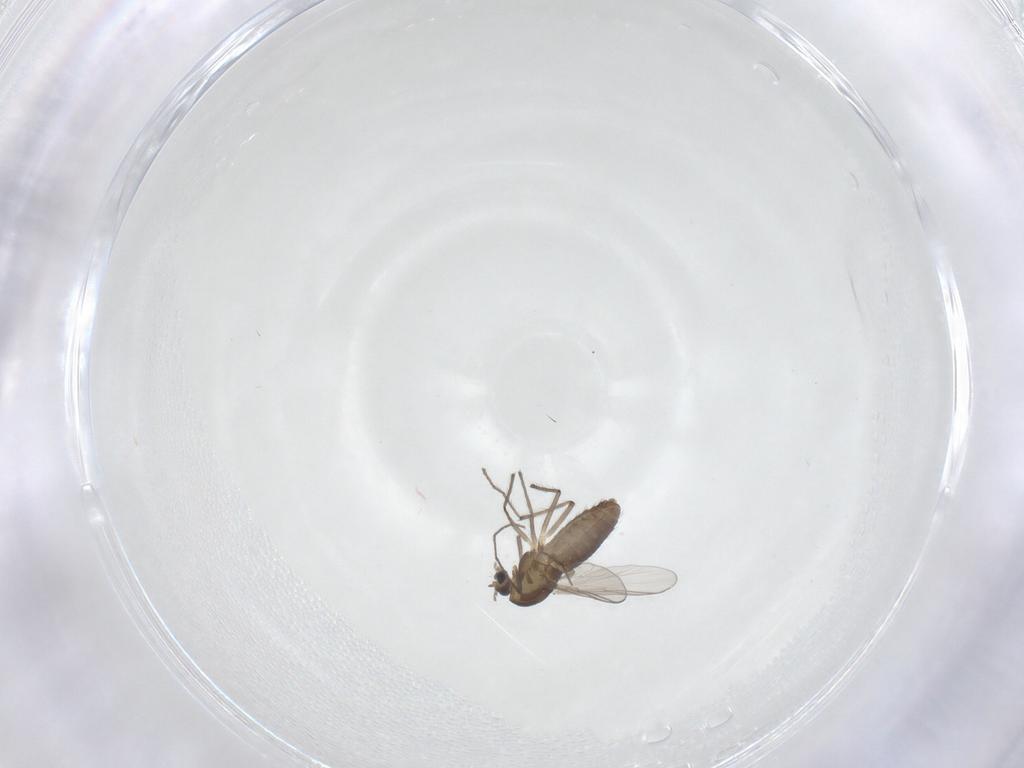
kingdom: Animalia
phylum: Arthropoda
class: Insecta
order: Diptera
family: Chironomidae
